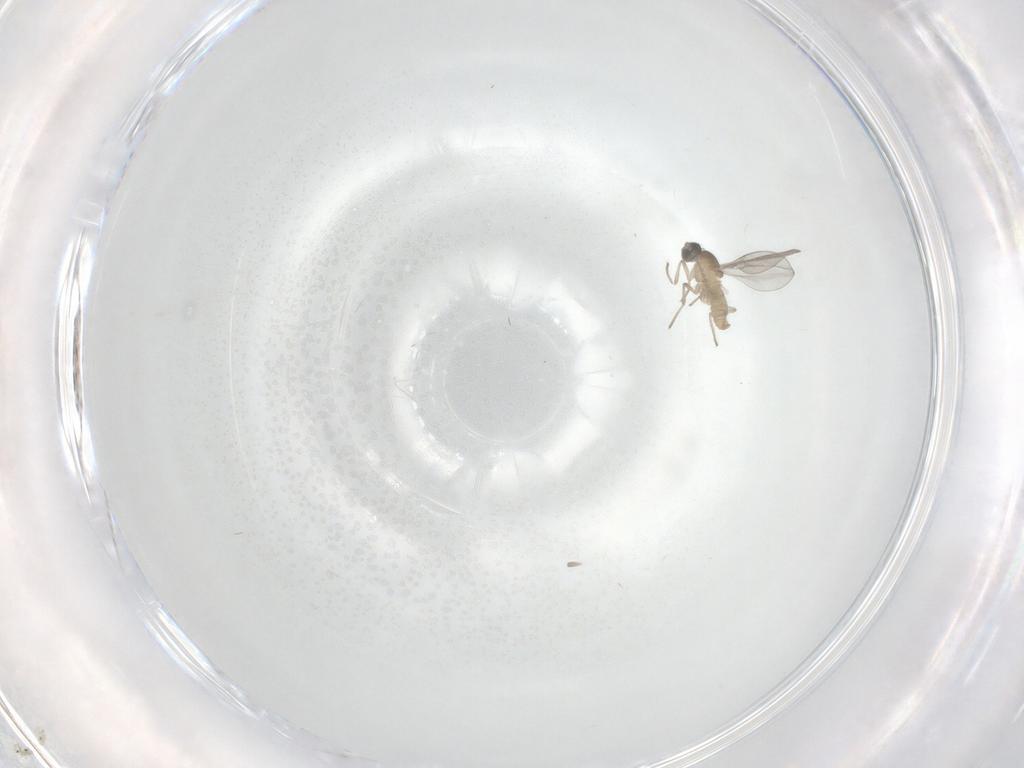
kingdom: Animalia
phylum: Arthropoda
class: Insecta
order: Diptera
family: Cecidomyiidae
